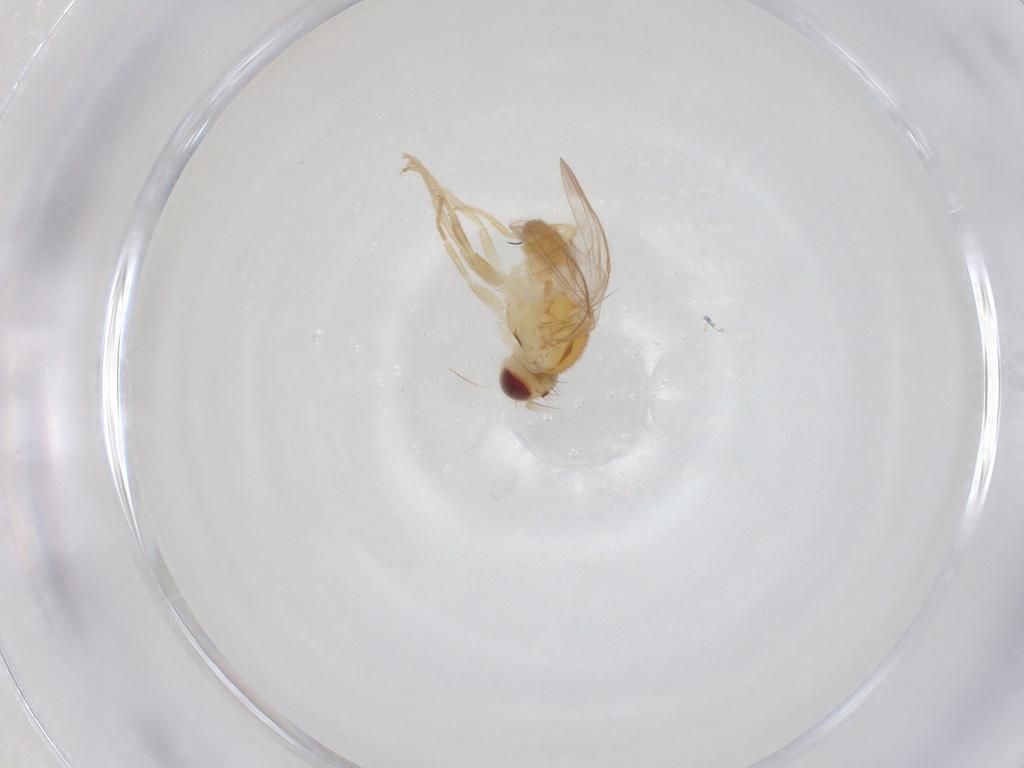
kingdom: Animalia
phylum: Arthropoda
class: Insecta
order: Diptera
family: Chloropidae
